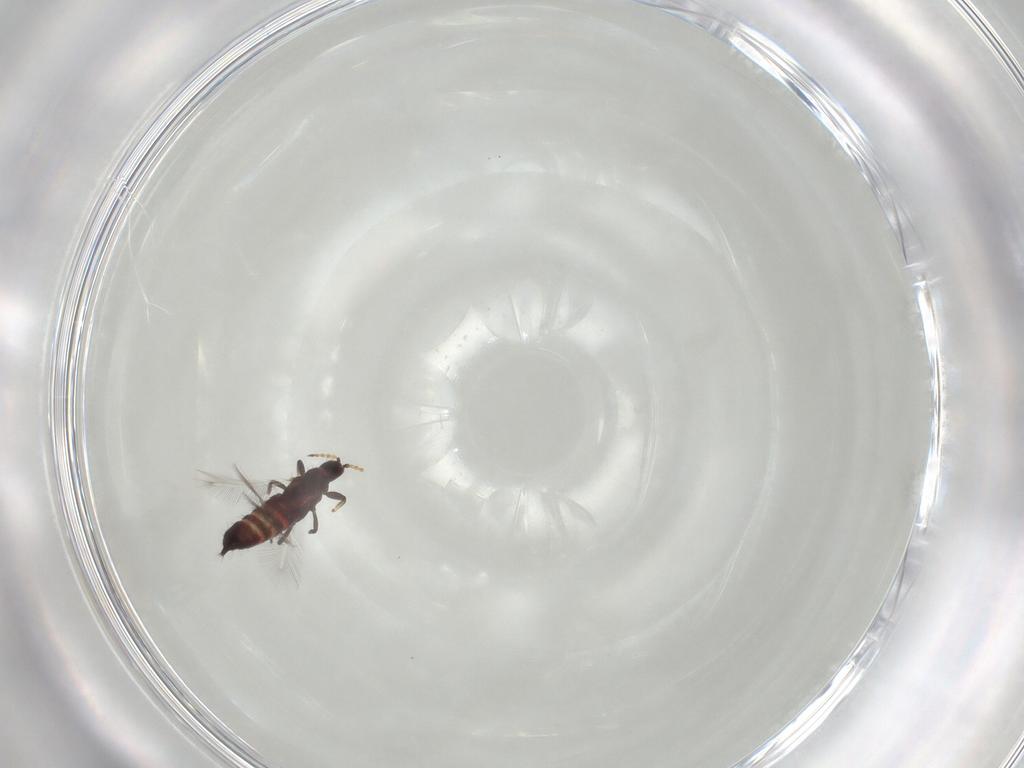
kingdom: Animalia
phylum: Arthropoda
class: Insecta
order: Thysanoptera
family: Phlaeothripidae
